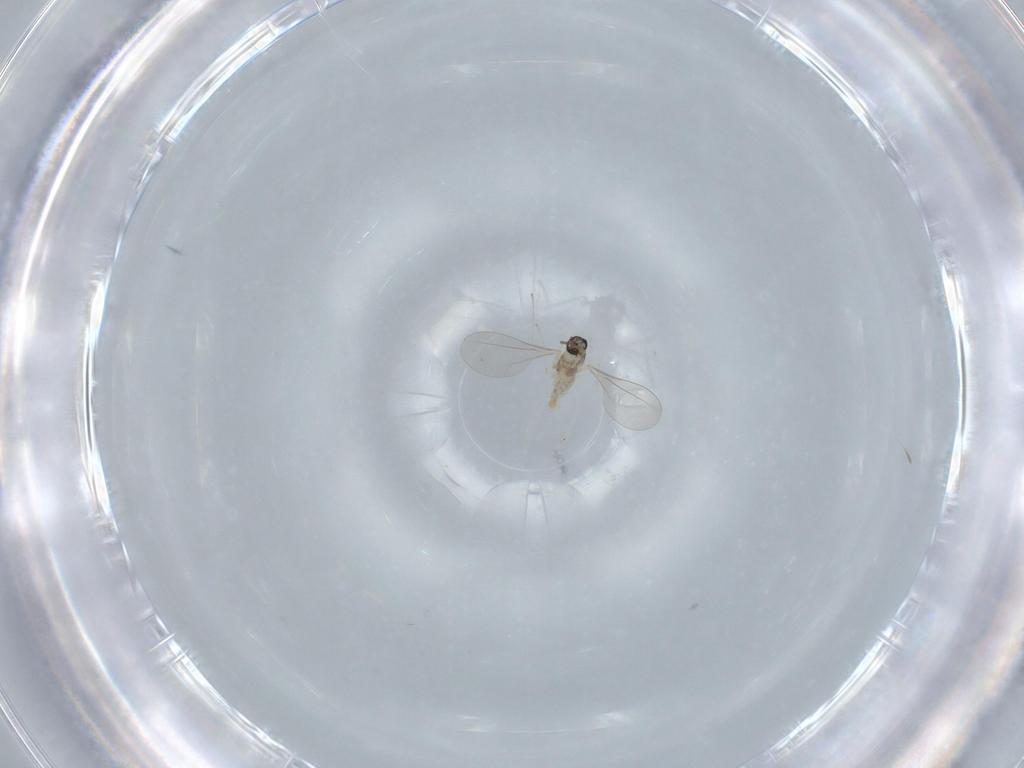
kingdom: Animalia
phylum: Arthropoda
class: Insecta
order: Diptera
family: Cecidomyiidae
